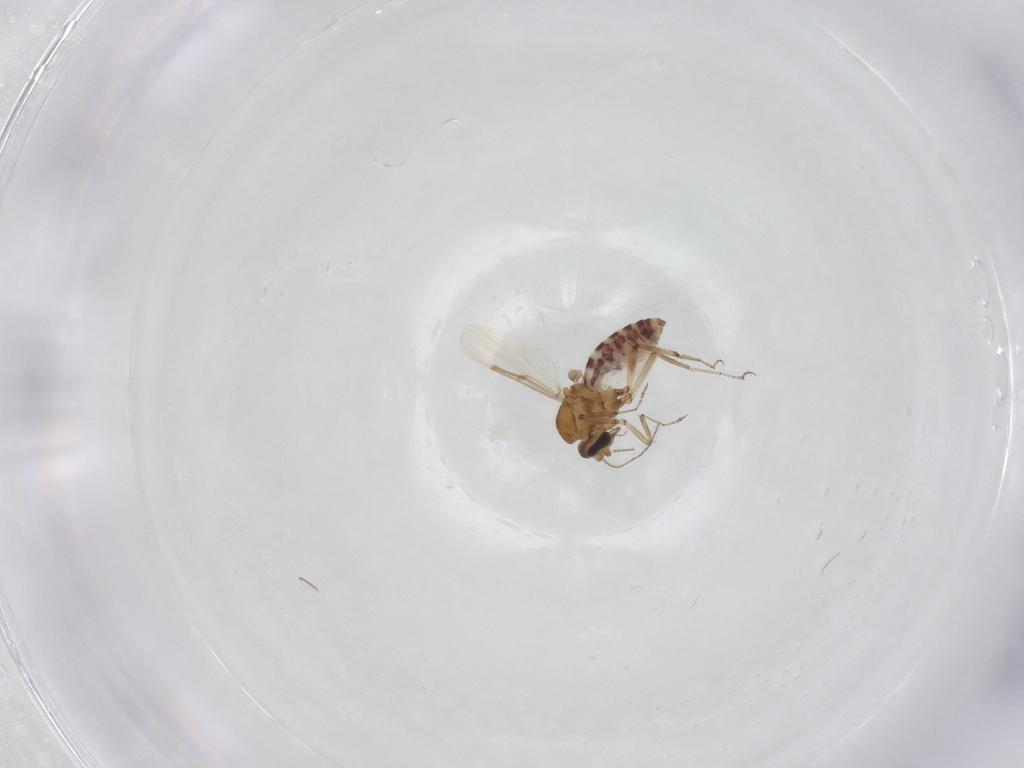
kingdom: Animalia
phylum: Arthropoda
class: Insecta
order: Diptera
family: Ceratopogonidae
